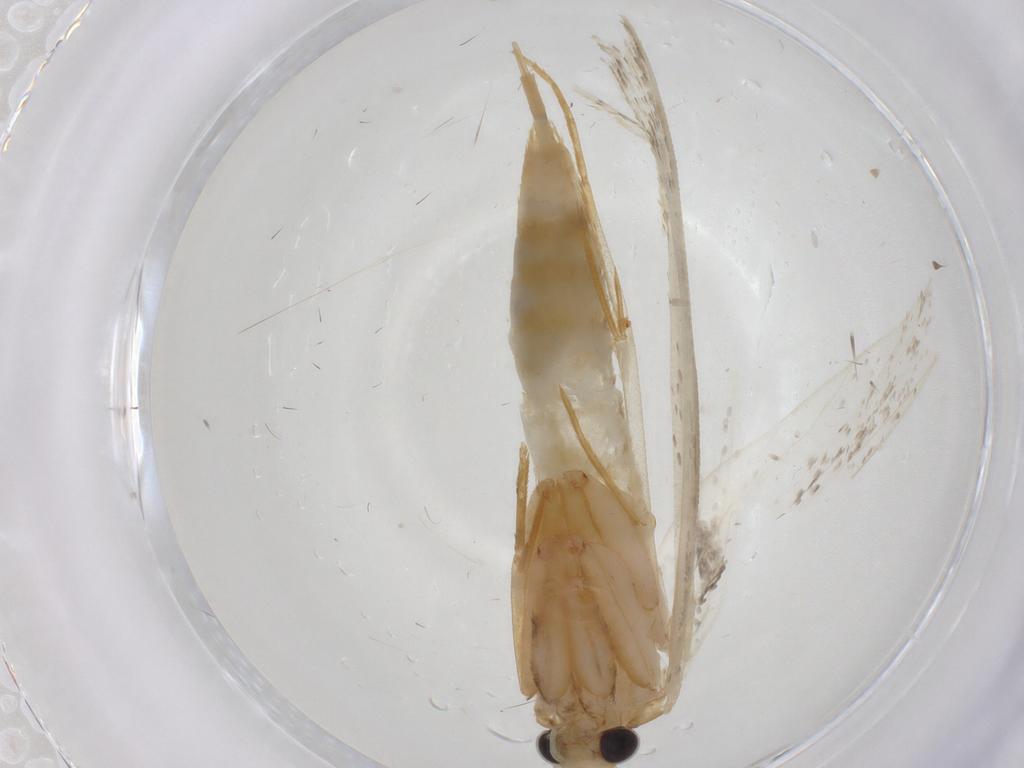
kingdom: Animalia
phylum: Arthropoda
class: Insecta
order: Lepidoptera
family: Tineidae
